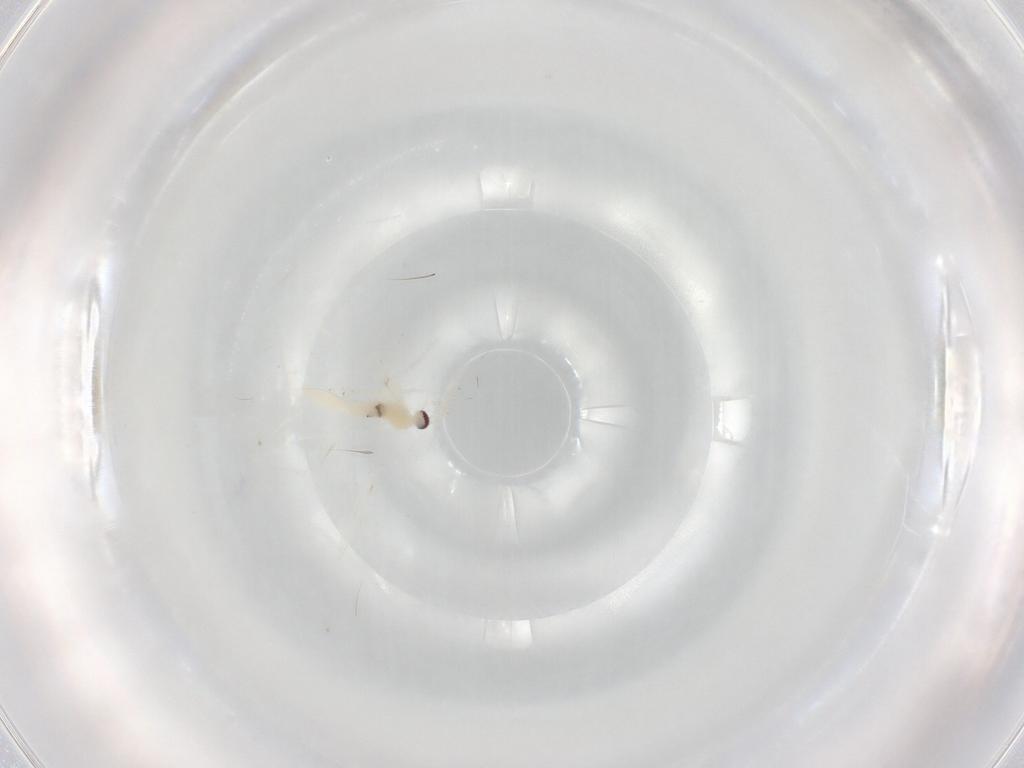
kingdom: Animalia
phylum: Arthropoda
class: Insecta
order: Diptera
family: Cecidomyiidae
